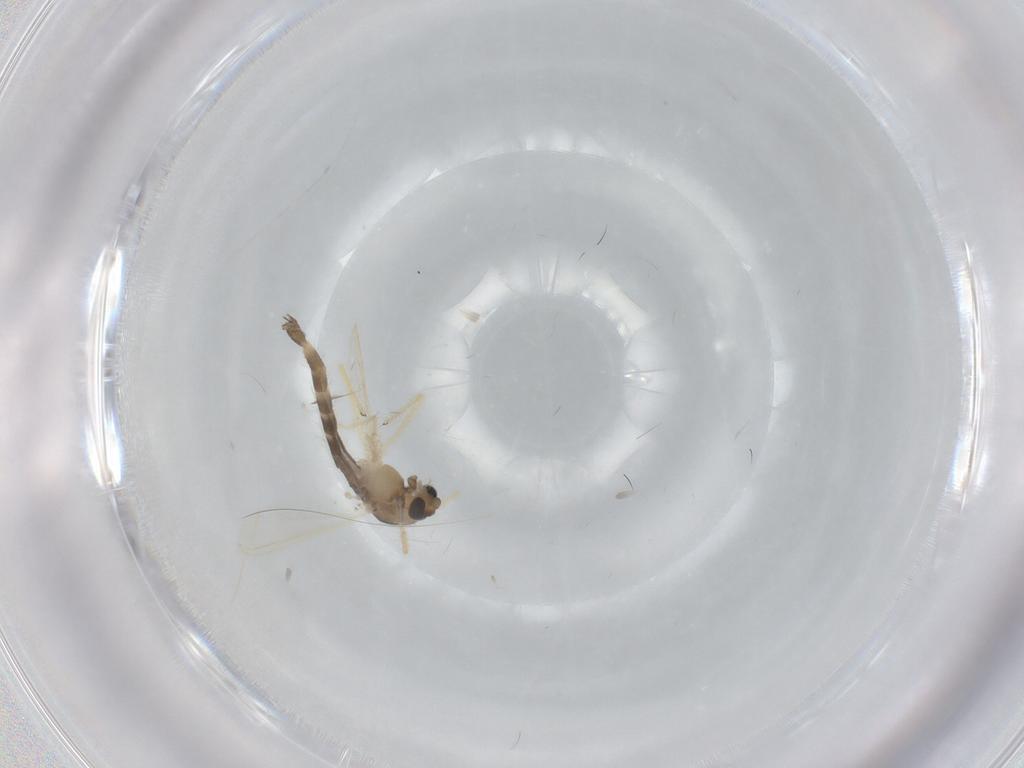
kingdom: Animalia
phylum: Arthropoda
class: Insecta
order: Diptera
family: Chironomidae
